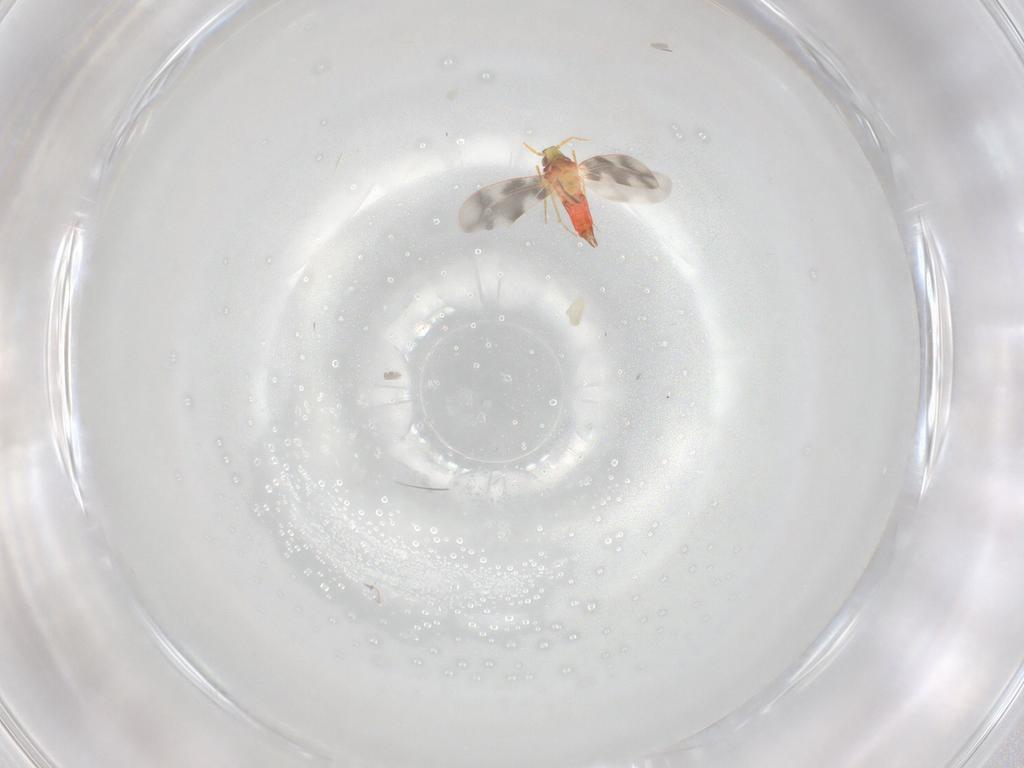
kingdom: Animalia
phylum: Arthropoda
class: Insecta
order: Hemiptera
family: Aleyrodidae
